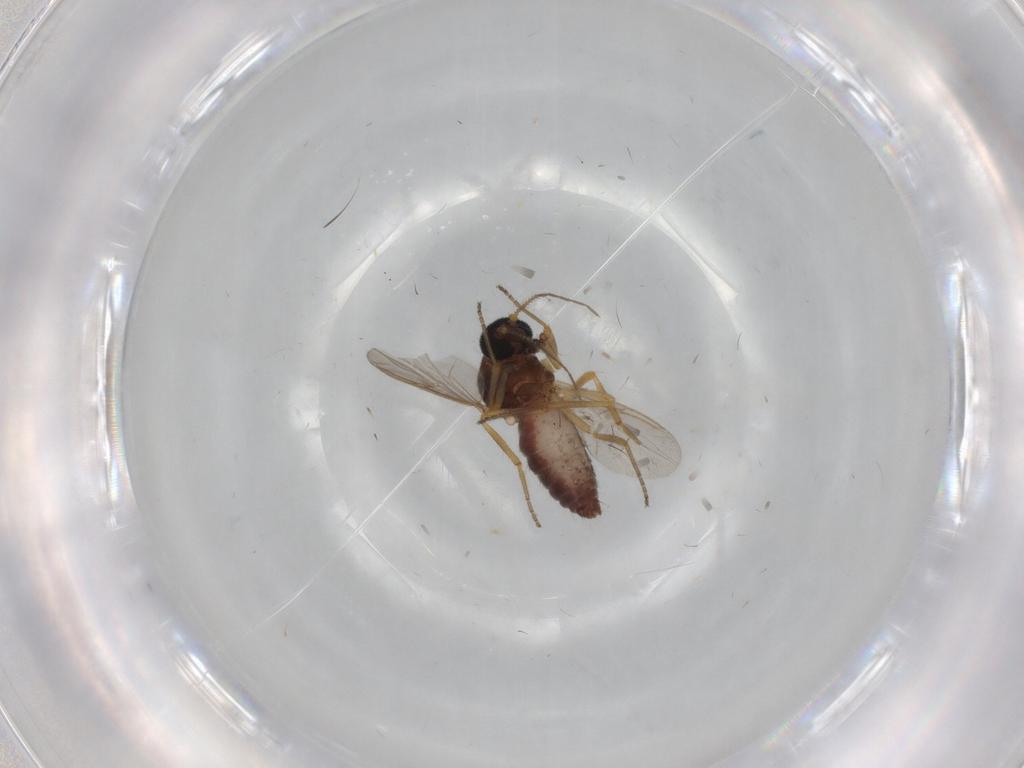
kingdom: Animalia
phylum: Arthropoda
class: Insecta
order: Diptera
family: Ceratopogonidae
